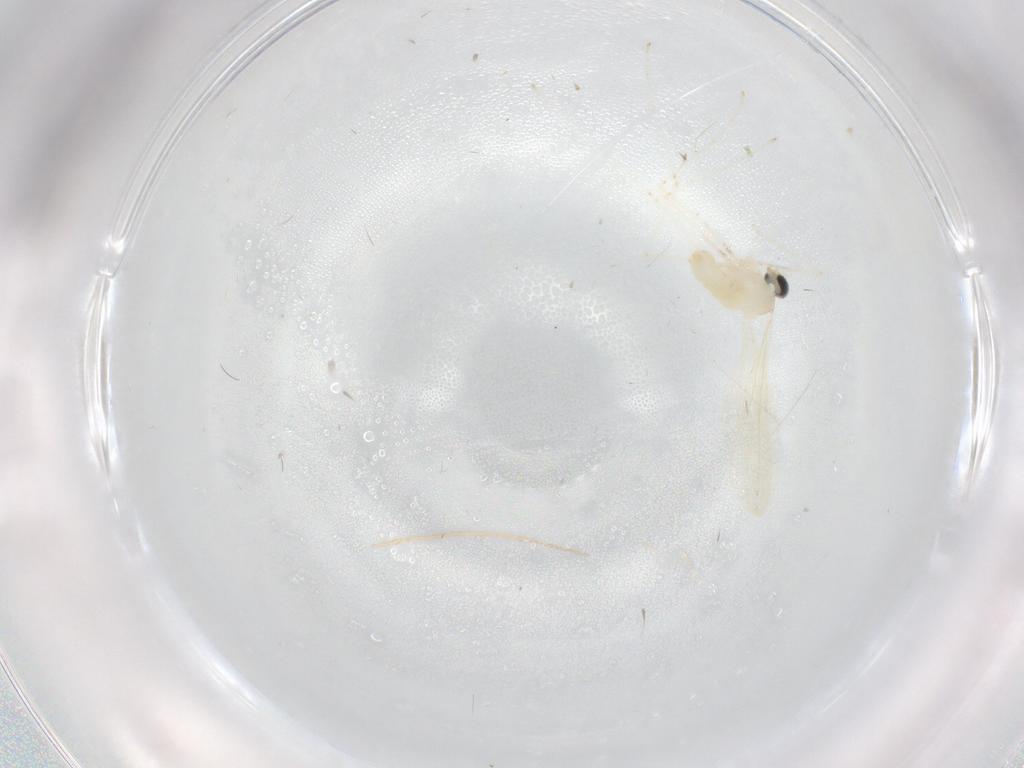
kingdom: Animalia
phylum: Arthropoda
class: Insecta
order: Diptera
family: Cecidomyiidae
